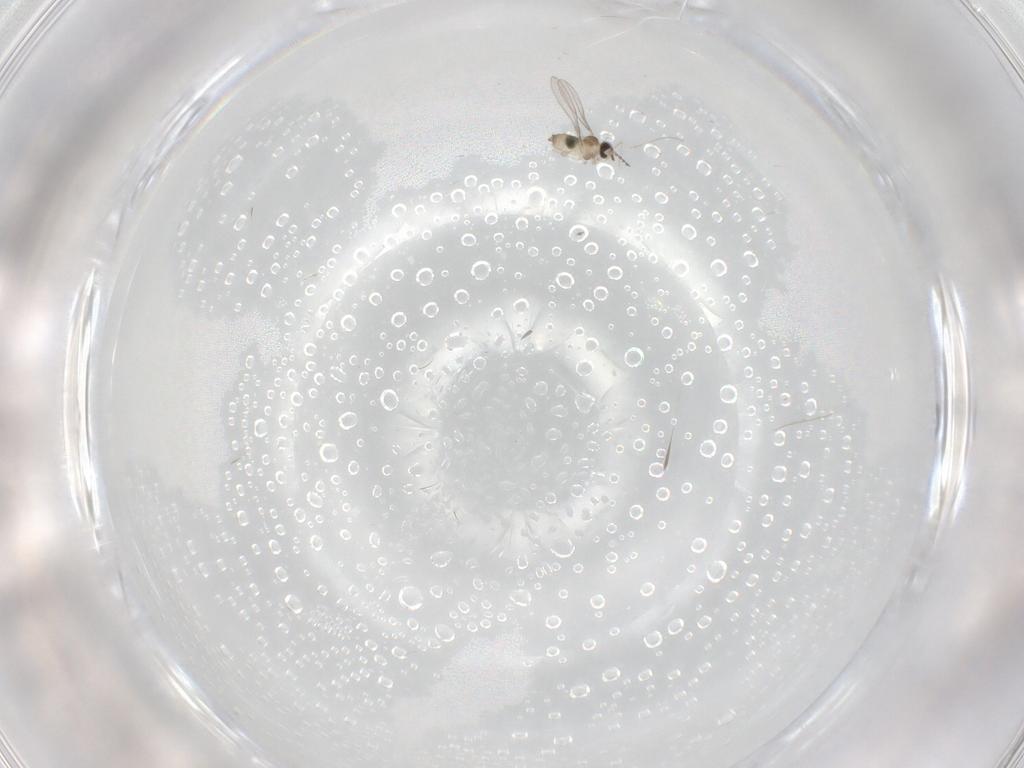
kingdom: Animalia
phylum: Arthropoda
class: Insecta
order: Diptera
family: Cecidomyiidae
